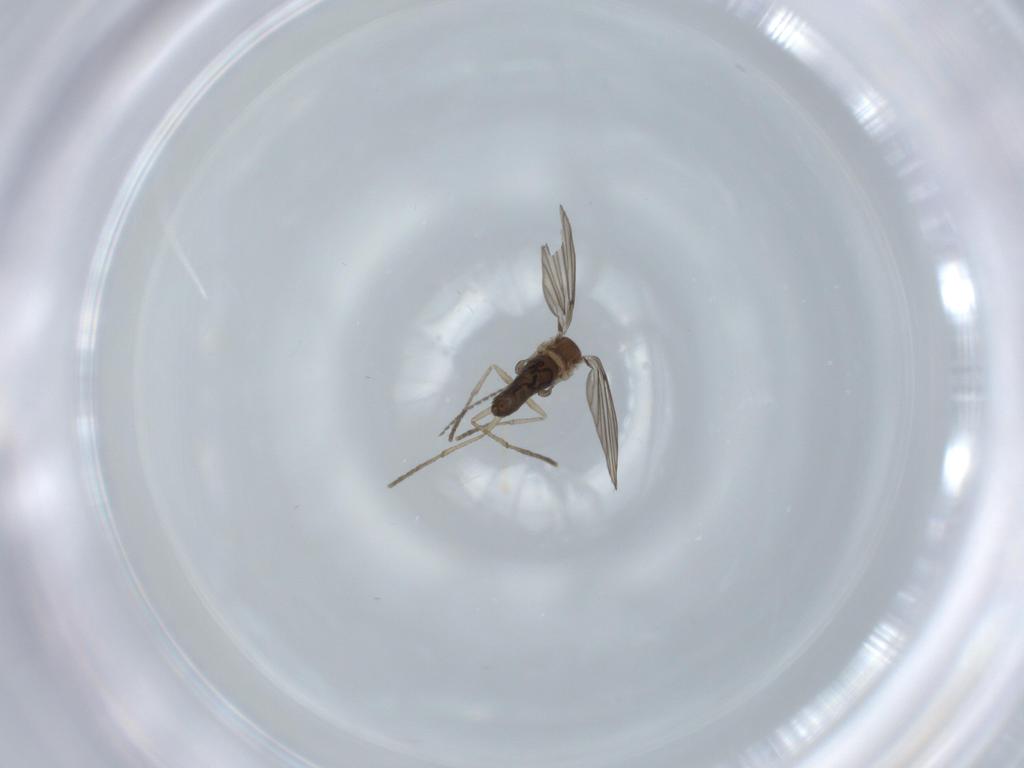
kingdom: Animalia
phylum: Arthropoda
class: Insecta
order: Diptera
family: Psychodidae
